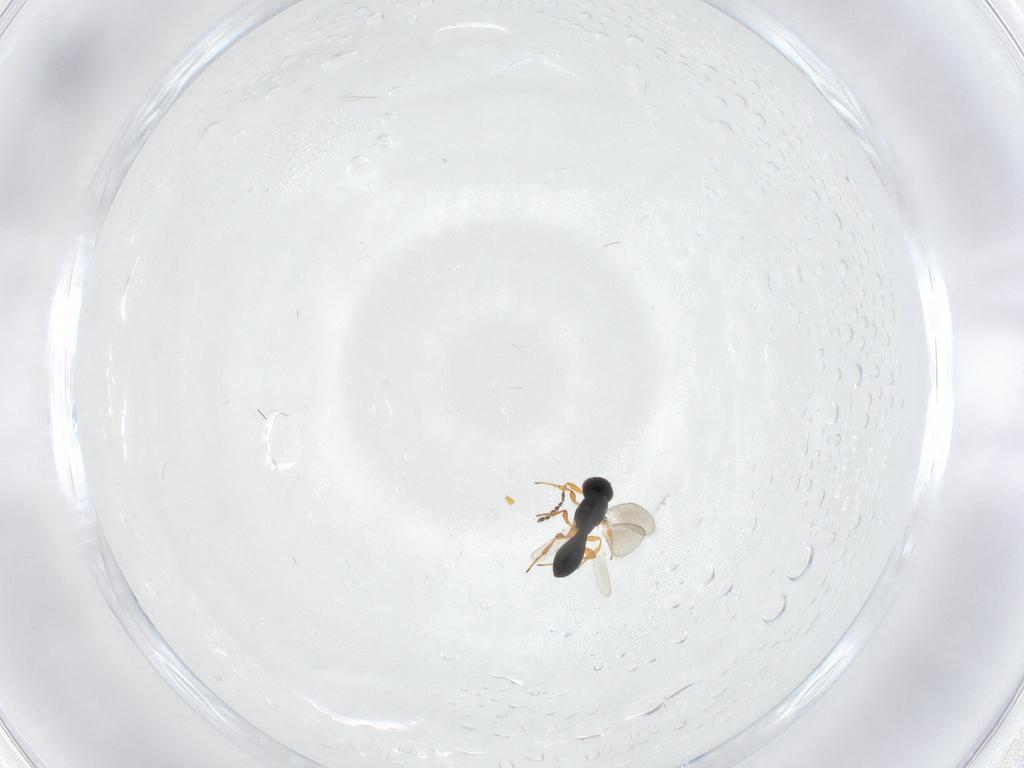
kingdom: Animalia
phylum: Arthropoda
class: Insecta
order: Hymenoptera
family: Platygastridae
